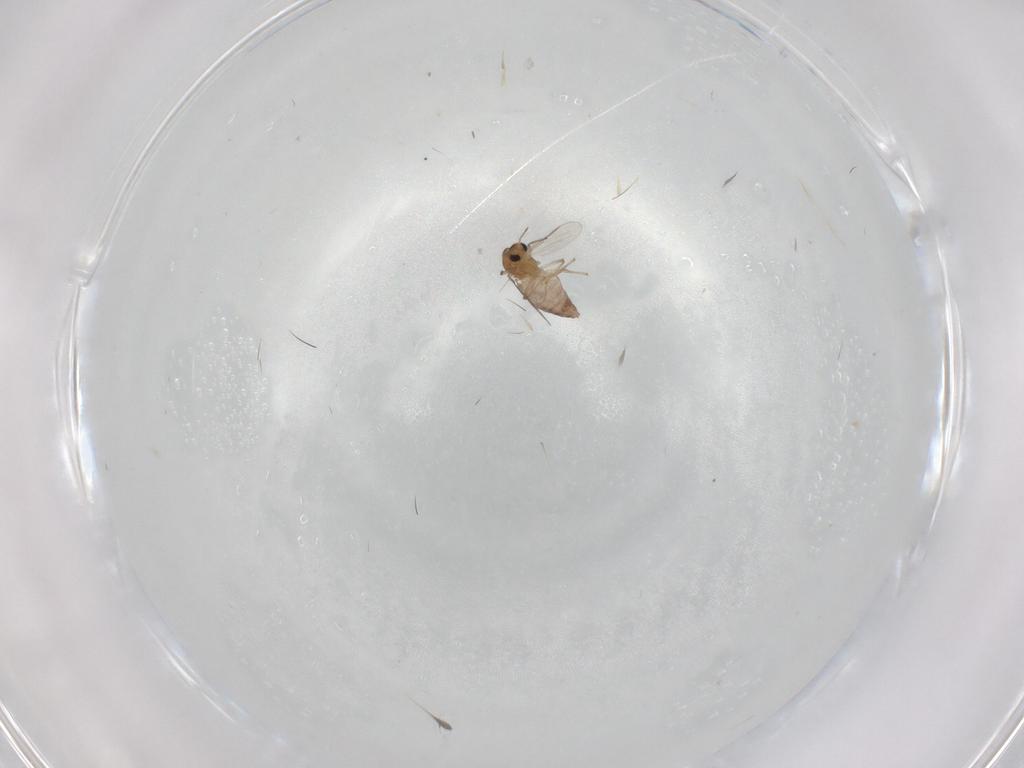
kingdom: Animalia
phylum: Arthropoda
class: Insecta
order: Diptera
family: Chironomidae
